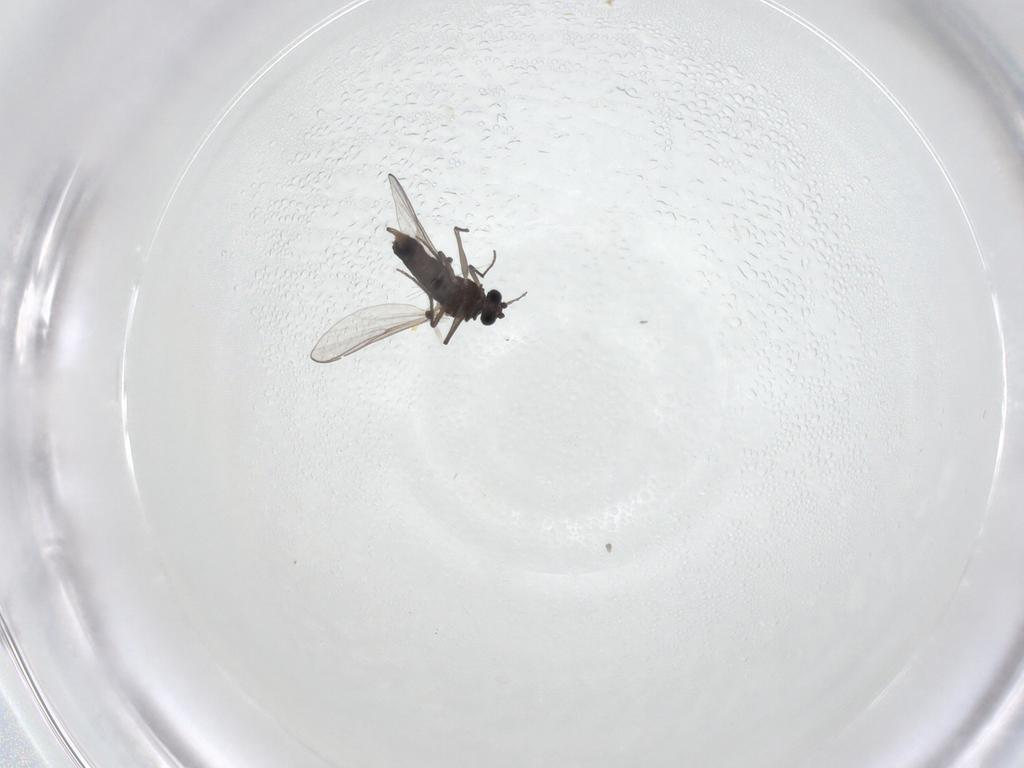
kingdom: Animalia
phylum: Arthropoda
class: Insecta
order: Diptera
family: Chironomidae
